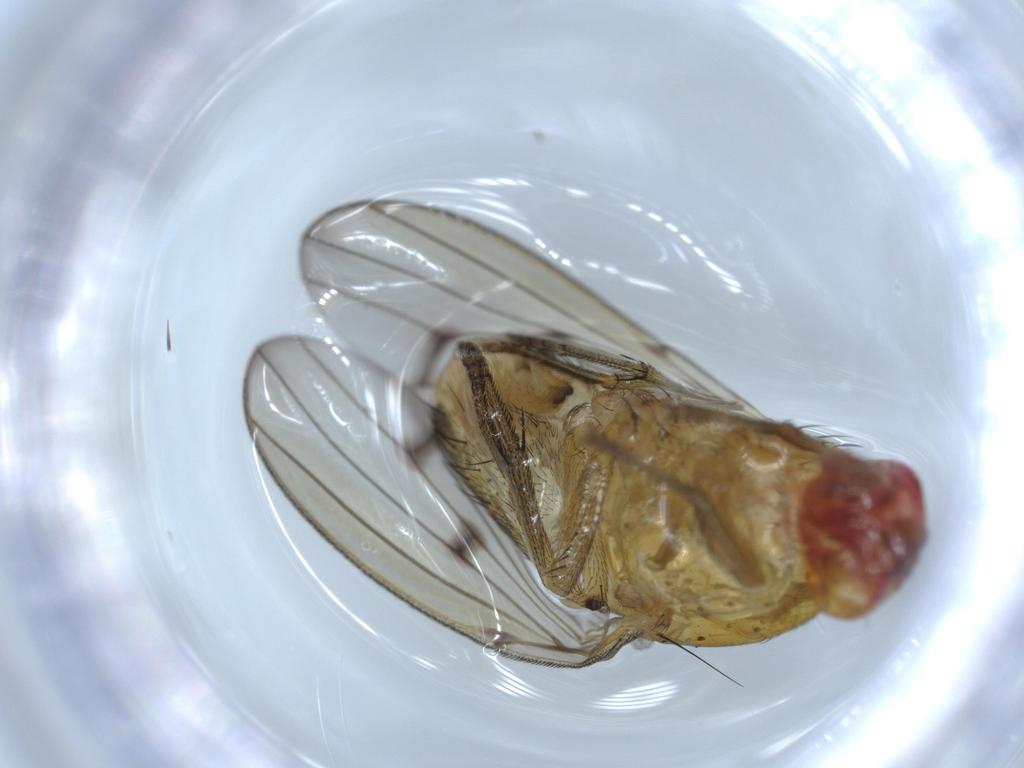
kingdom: Animalia
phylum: Arthropoda
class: Insecta
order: Diptera
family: Hybotidae
